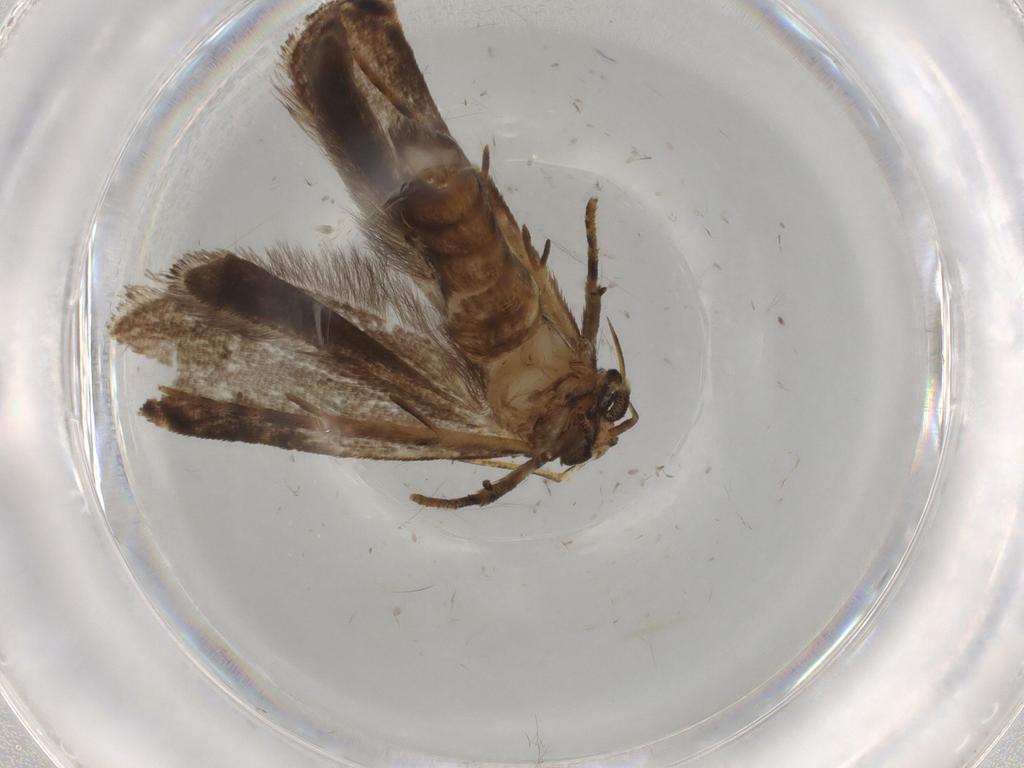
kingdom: Animalia
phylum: Arthropoda
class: Insecta
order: Lepidoptera
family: Gelechiidae
